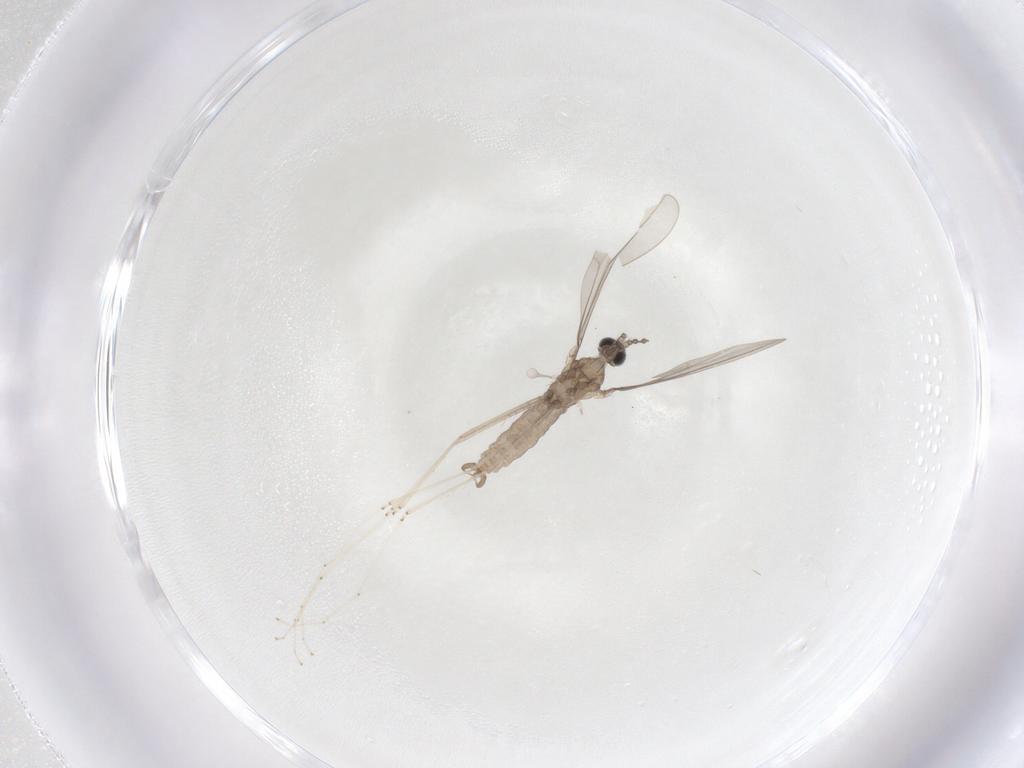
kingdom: Animalia
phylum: Arthropoda
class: Insecta
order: Diptera
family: Cecidomyiidae
